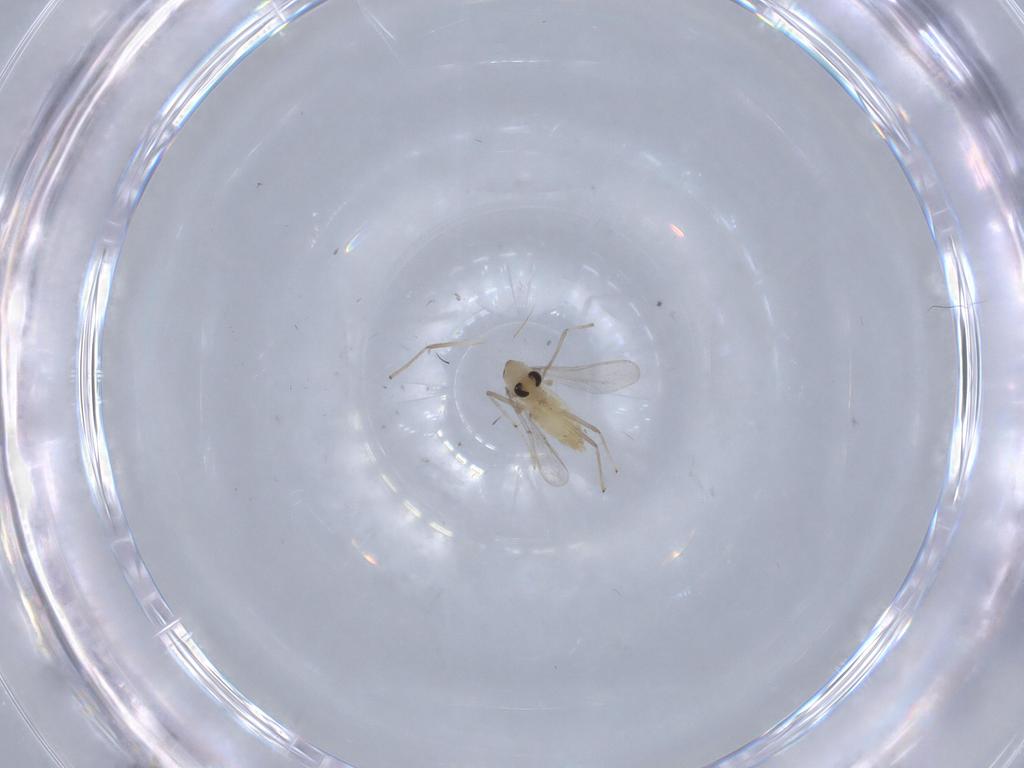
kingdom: Animalia
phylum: Arthropoda
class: Insecta
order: Diptera
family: Chironomidae
